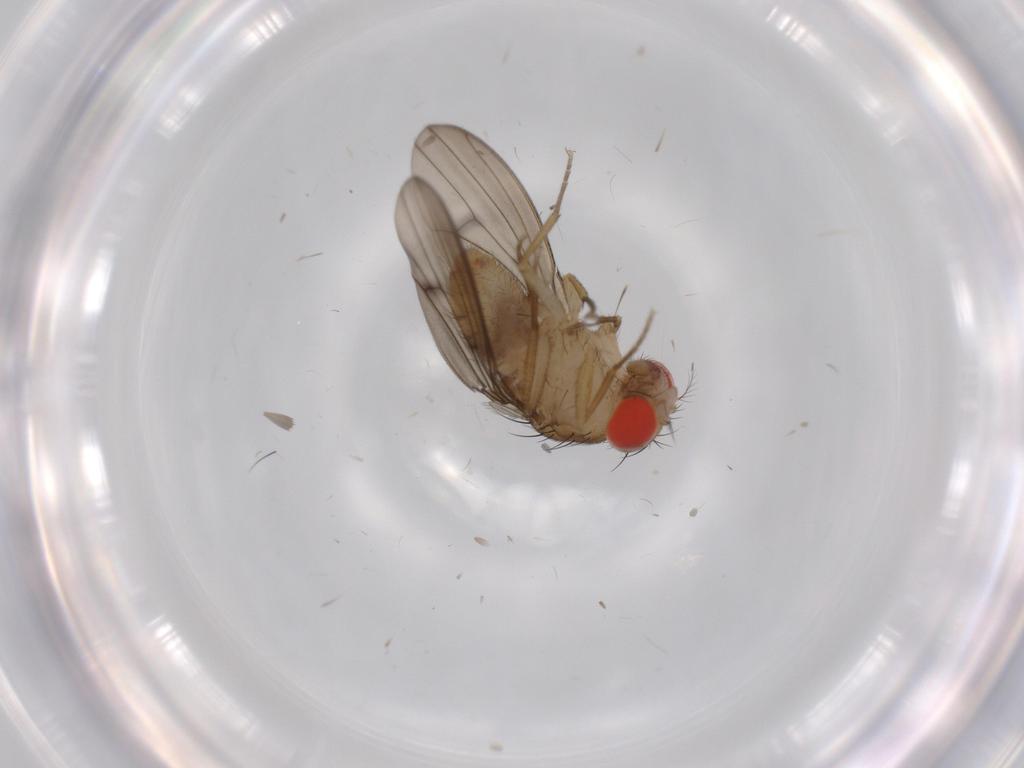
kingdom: Animalia
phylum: Arthropoda
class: Insecta
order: Diptera
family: Drosophilidae
